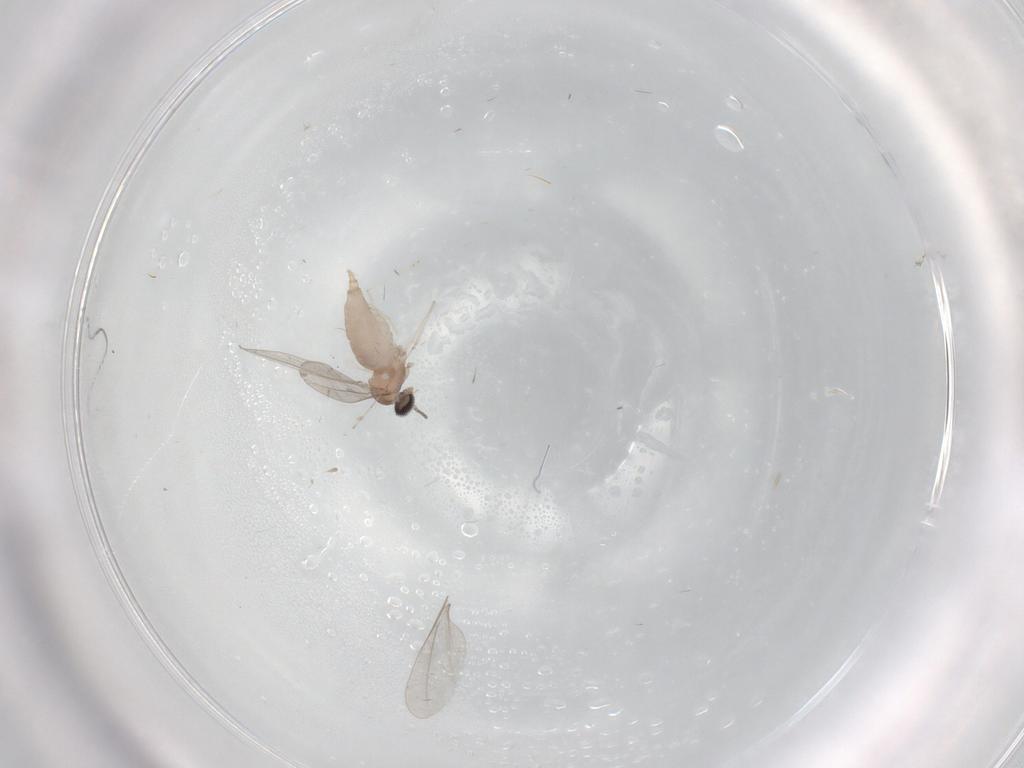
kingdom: Animalia
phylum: Arthropoda
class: Insecta
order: Diptera
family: Cecidomyiidae
